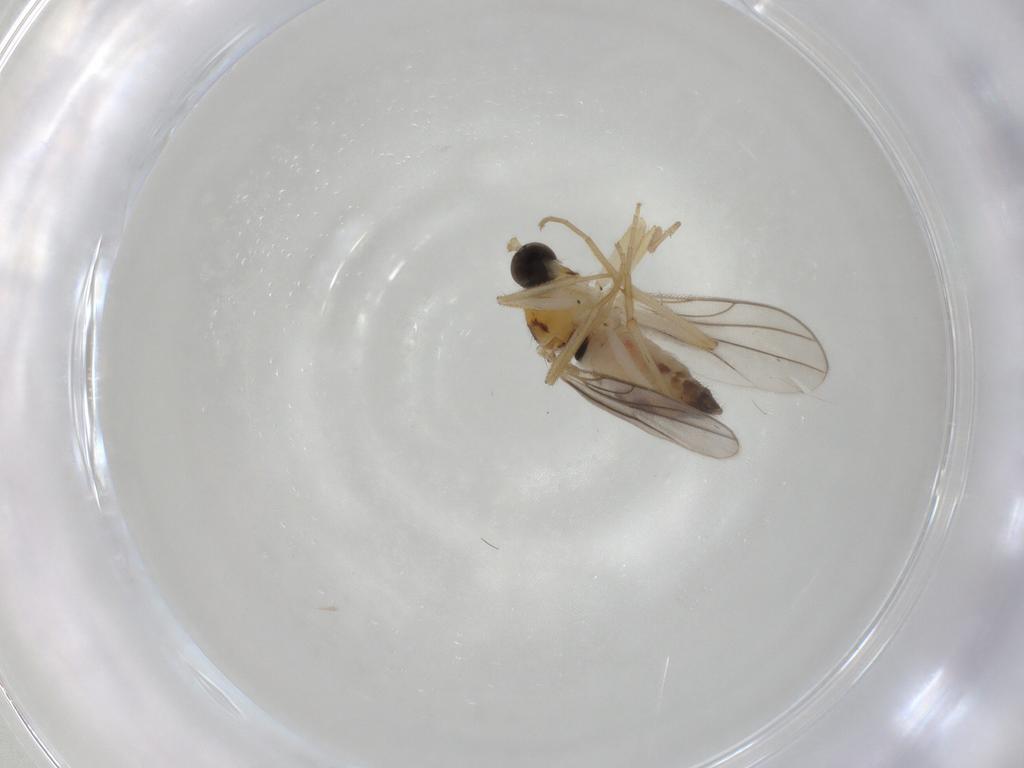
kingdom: Animalia
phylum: Arthropoda
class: Insecta
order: Diptera
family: Hybotidae
